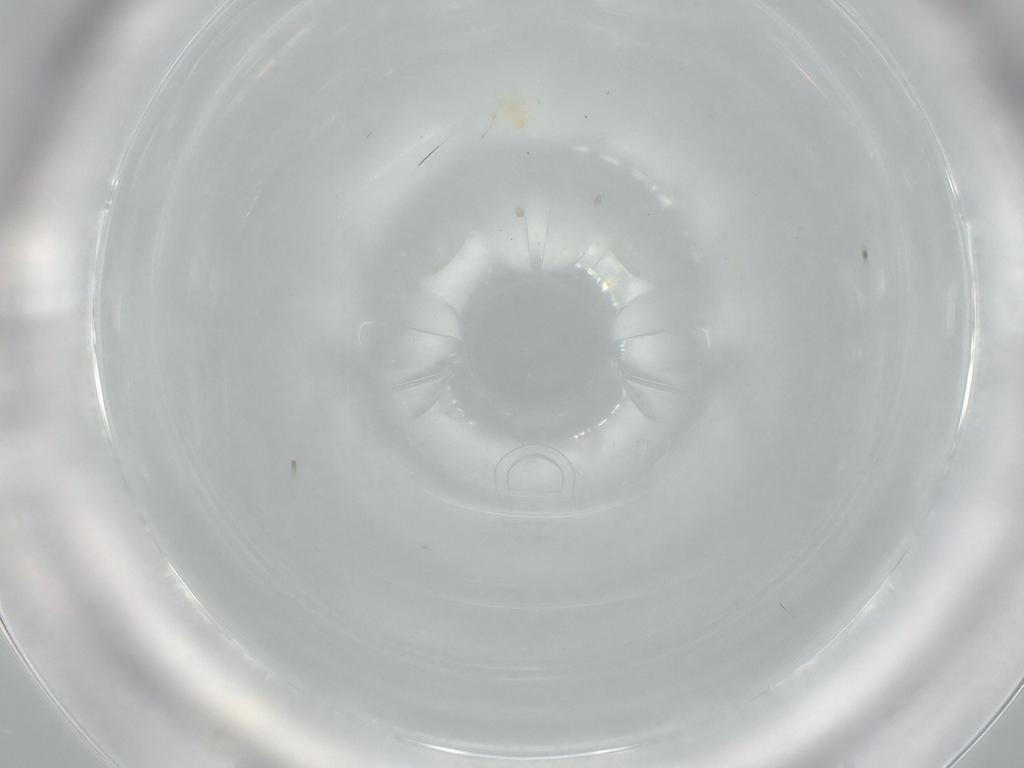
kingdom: Animalia
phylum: Arthropoda
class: Arachnida
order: Trombidiformes
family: Erythraeidae
